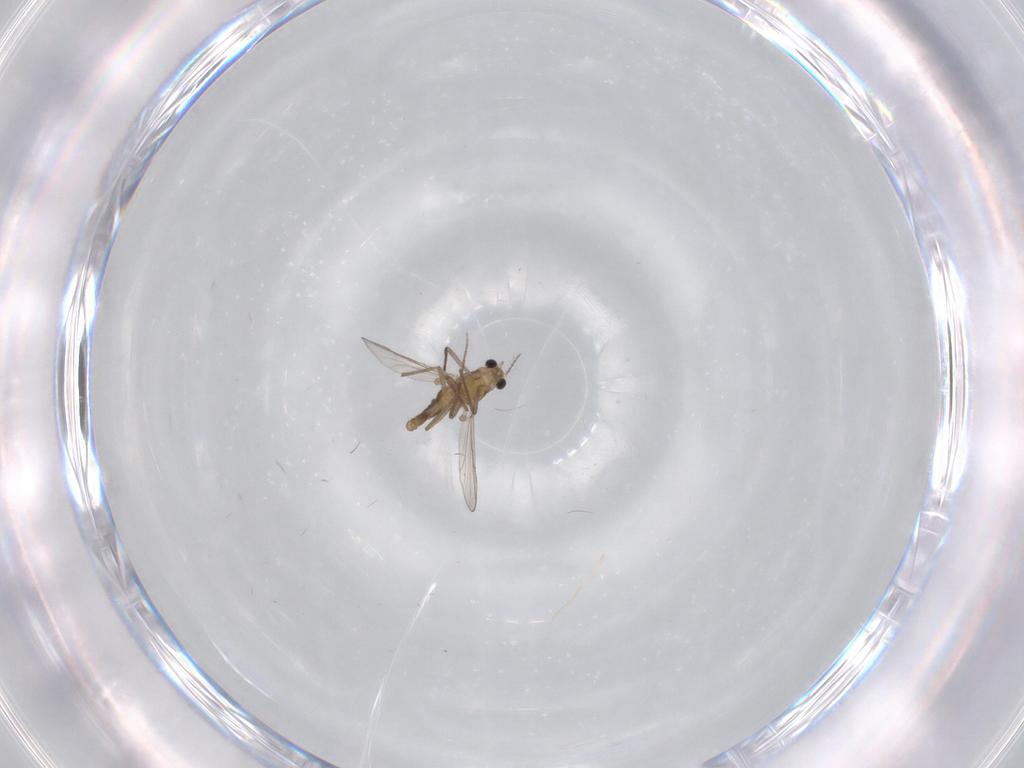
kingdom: Animalia
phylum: Arthropoda
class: Insecta
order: Diptera
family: Chironomidae
